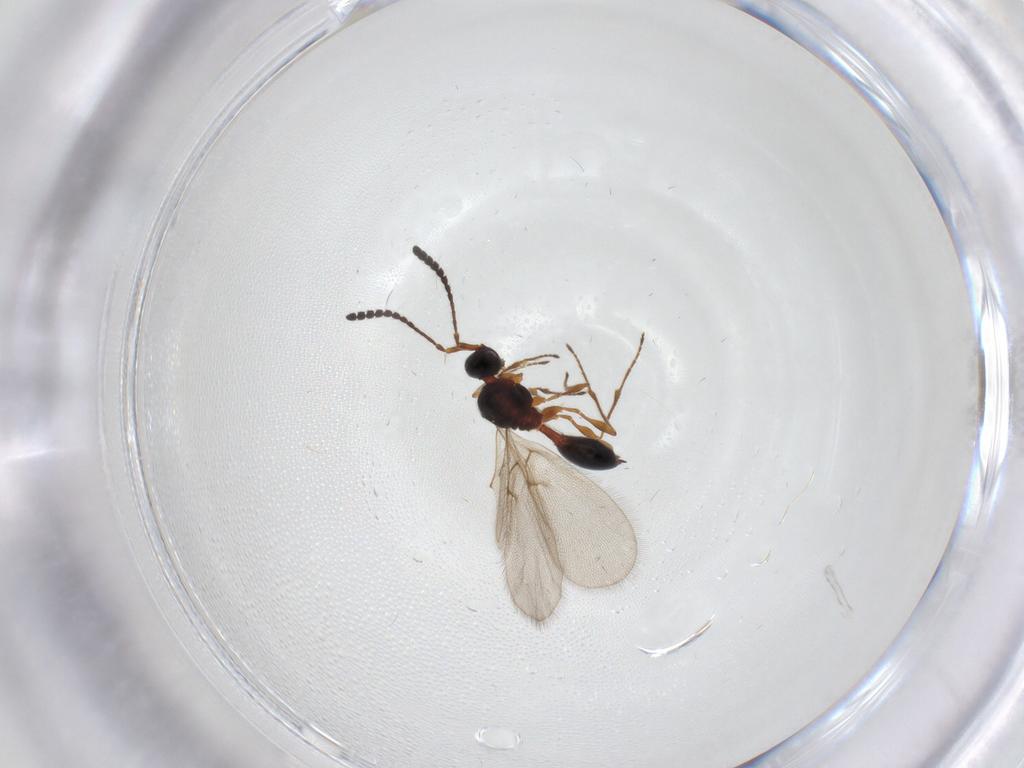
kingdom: Animalia
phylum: Arthropoda
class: Insecta
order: Hymenoptera
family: Diapriidae
